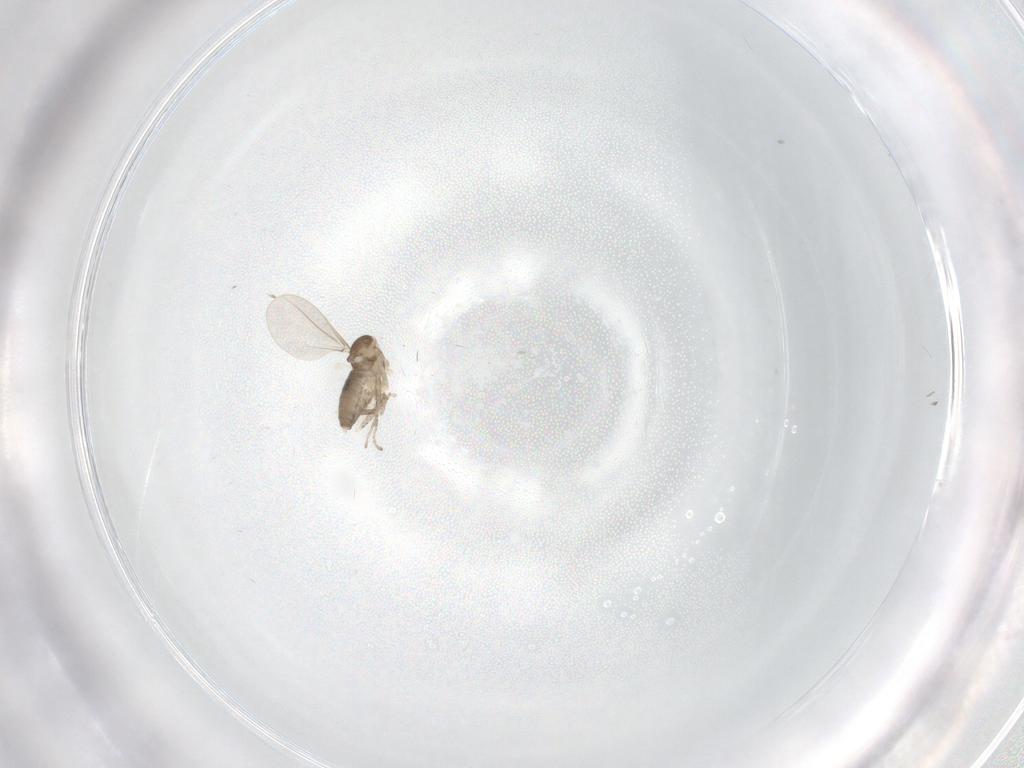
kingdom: Animalia
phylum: Arthropoda
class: Insecta
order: Diptera
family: Cecidomyiidae
